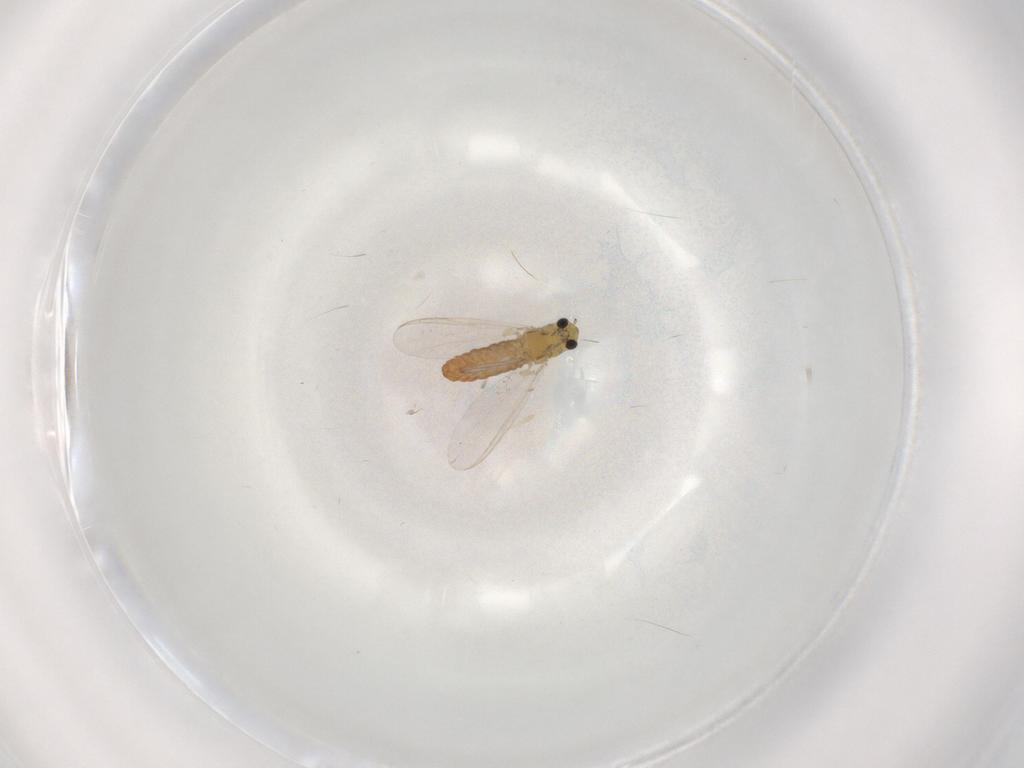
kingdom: Animalia
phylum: Arthropoda
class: Insecta
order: Diptera
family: Chironomidae
